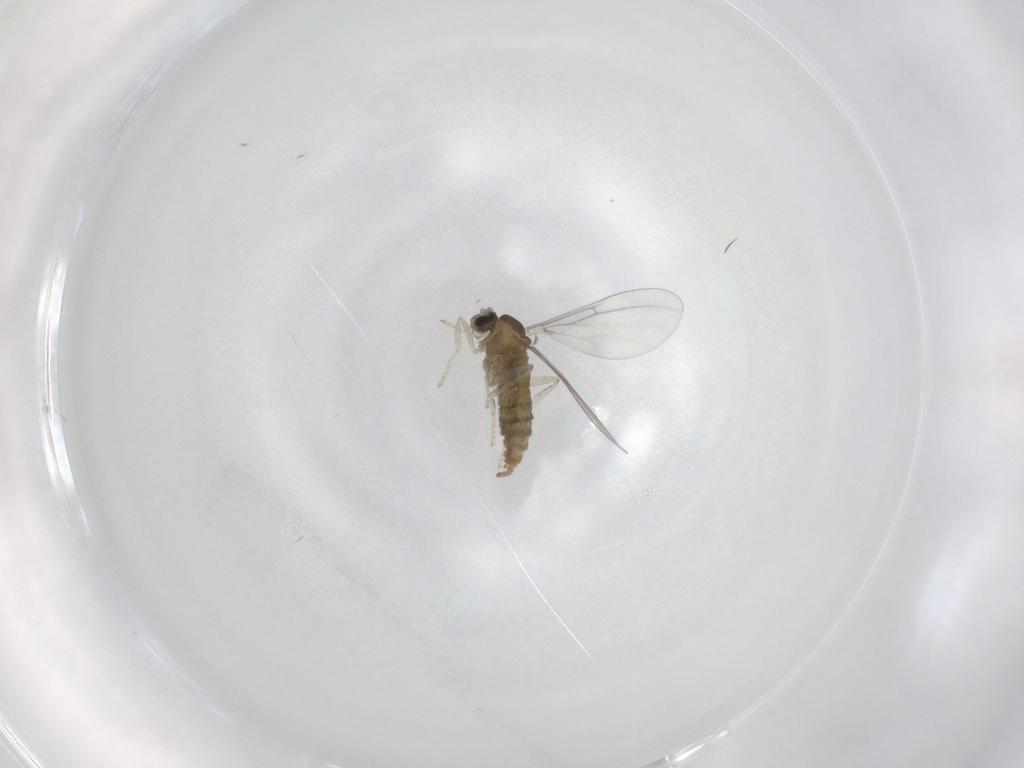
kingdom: Animalia
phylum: Arthropoda
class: Insecta
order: Diptera
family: Cecidomyiidae
